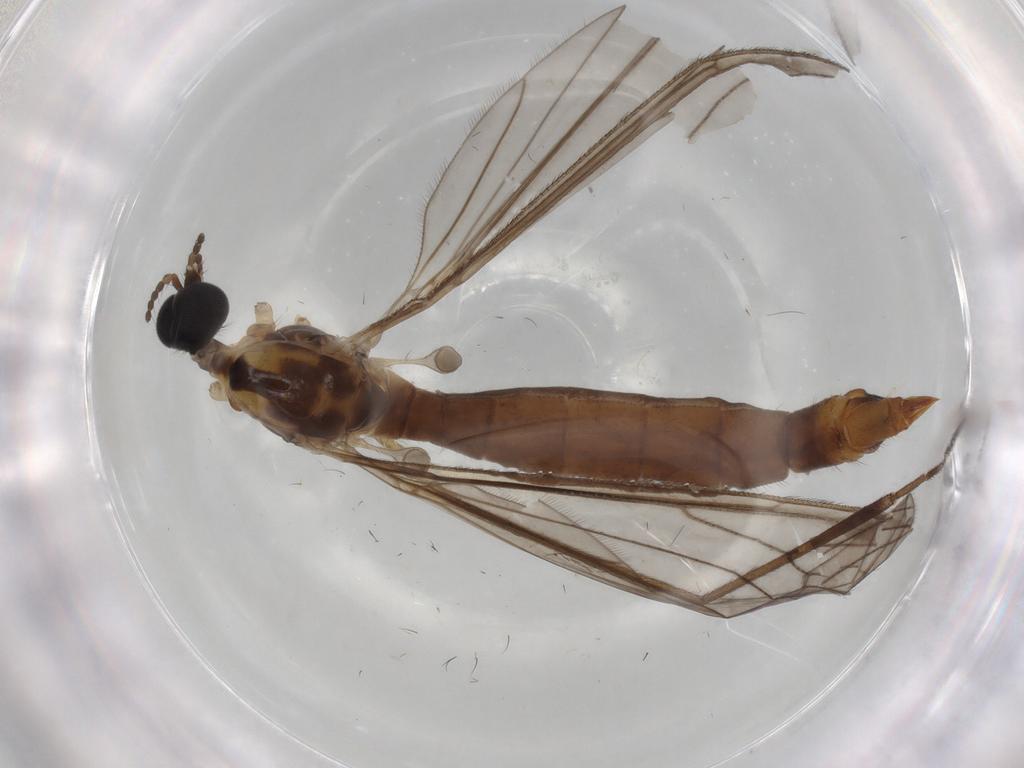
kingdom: Animalia
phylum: Arthropoda
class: Insecta
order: Diptera
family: Limoniidae
